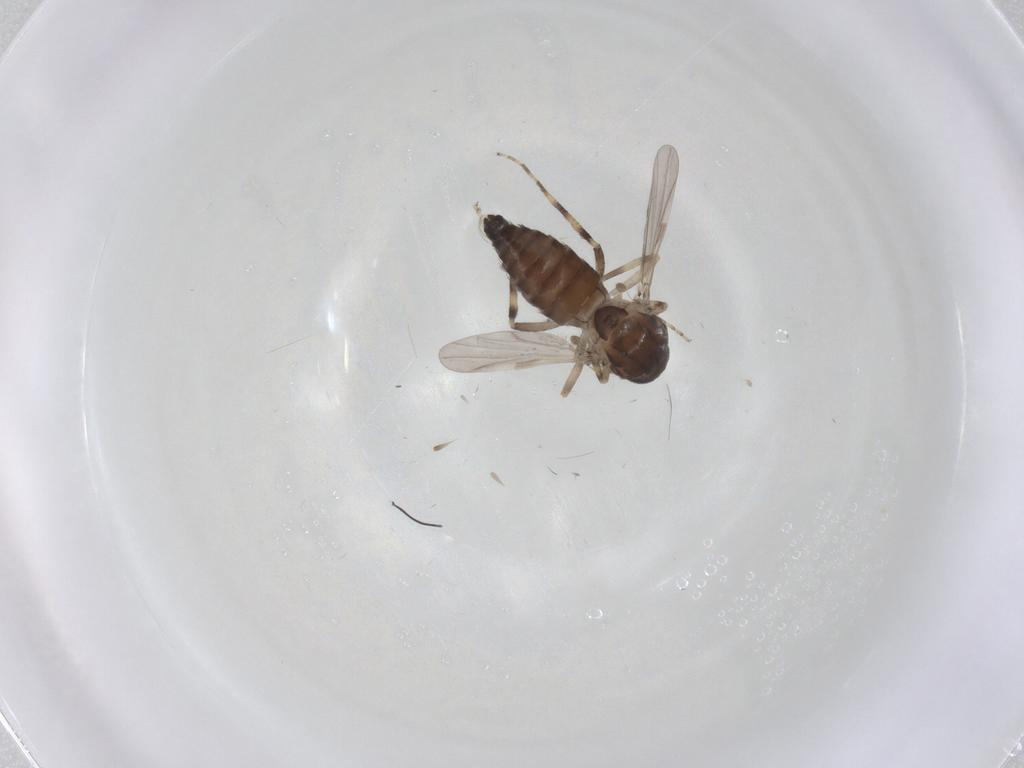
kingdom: Animalia
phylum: Arthropoda
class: Insecta
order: Diptera
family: Ceratopogonidae
